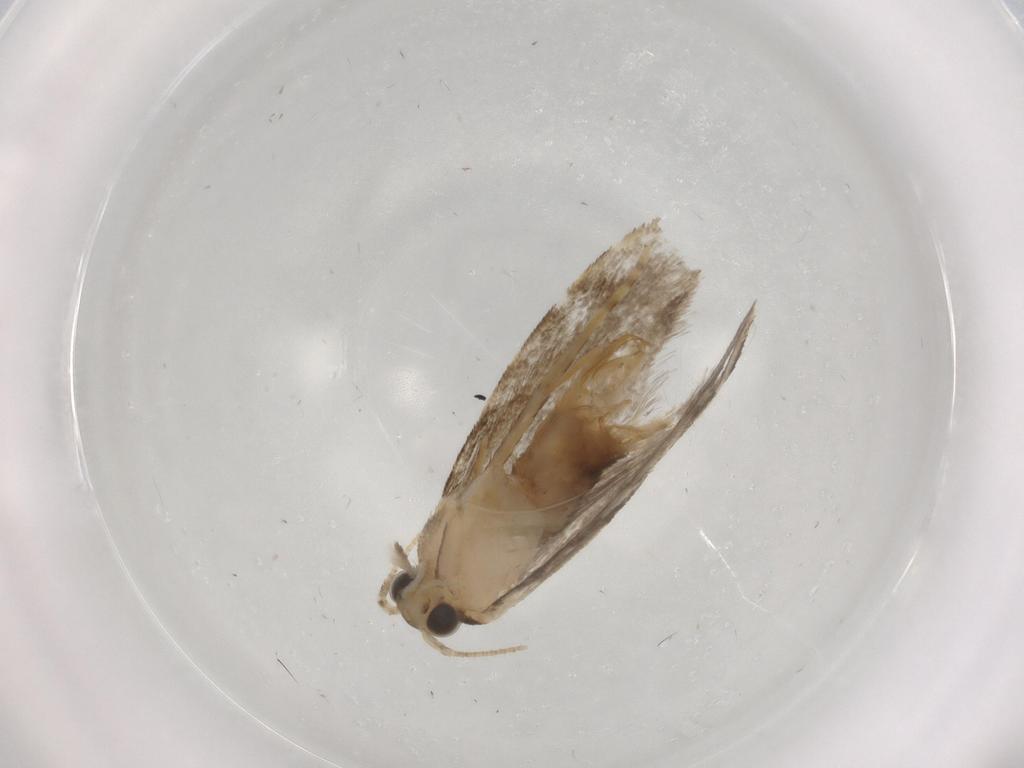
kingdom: Animalia
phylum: Arthropoda
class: Insecta
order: Lepidoptera
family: Tineidae
